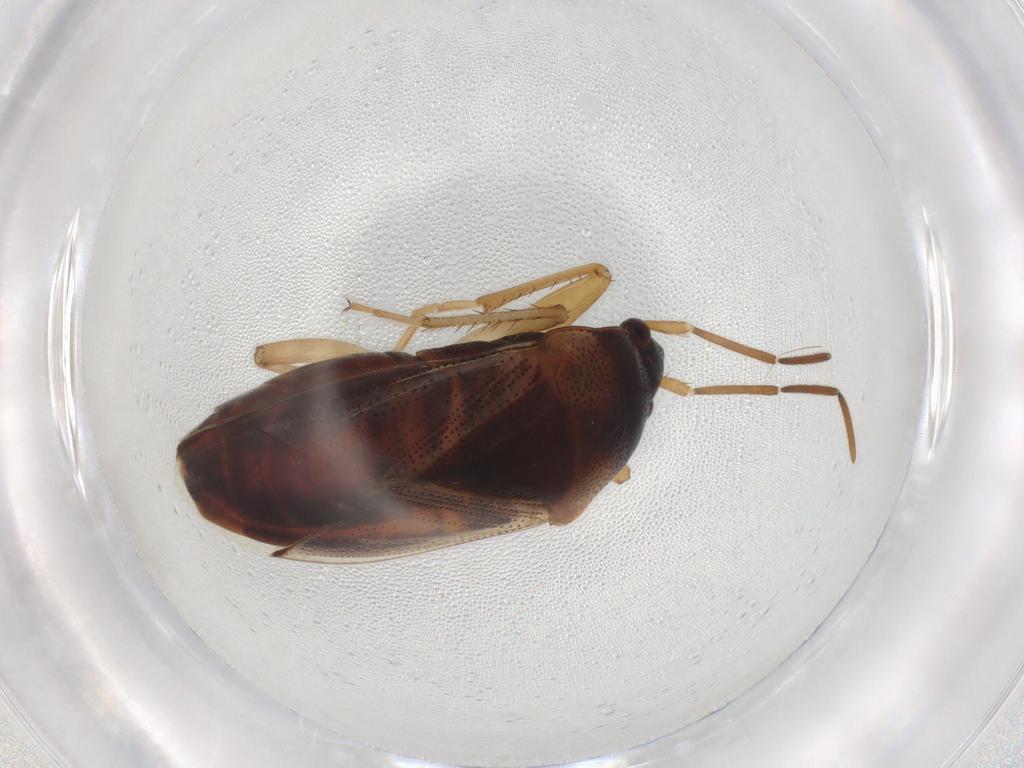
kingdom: Animalia
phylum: Arthropoda
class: Insecta
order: Hemiptera
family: Rhyparochromidae
